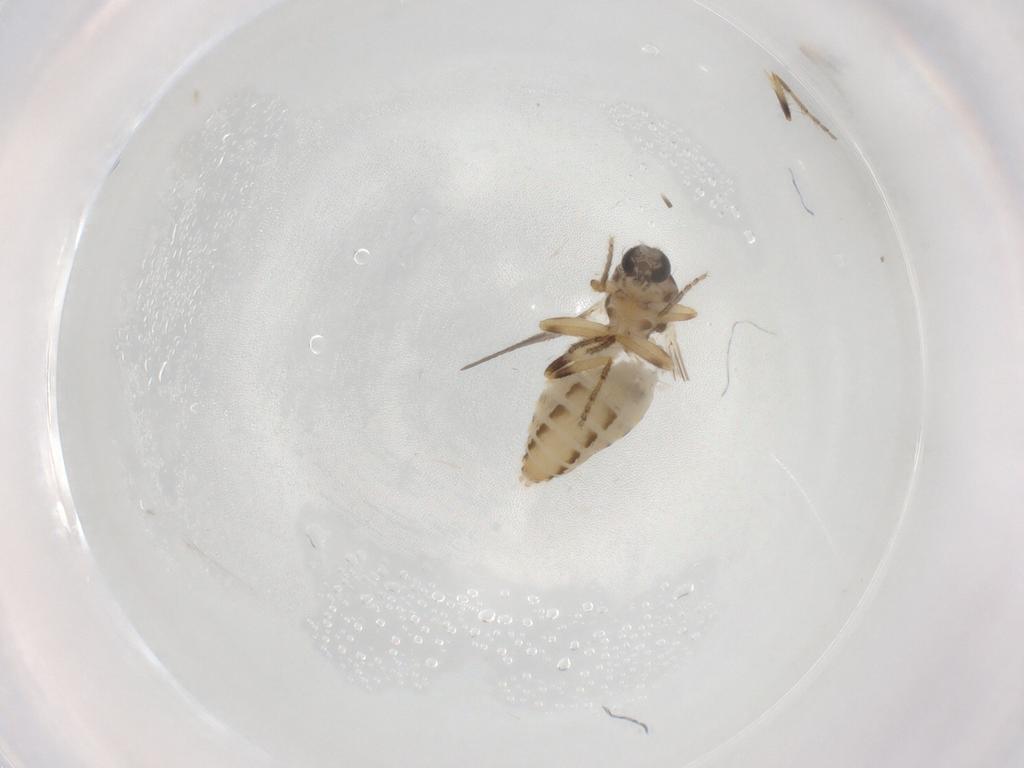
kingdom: Animalia
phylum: Arthropoda
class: Insecta
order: Diptera
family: Ceratopogonidae
